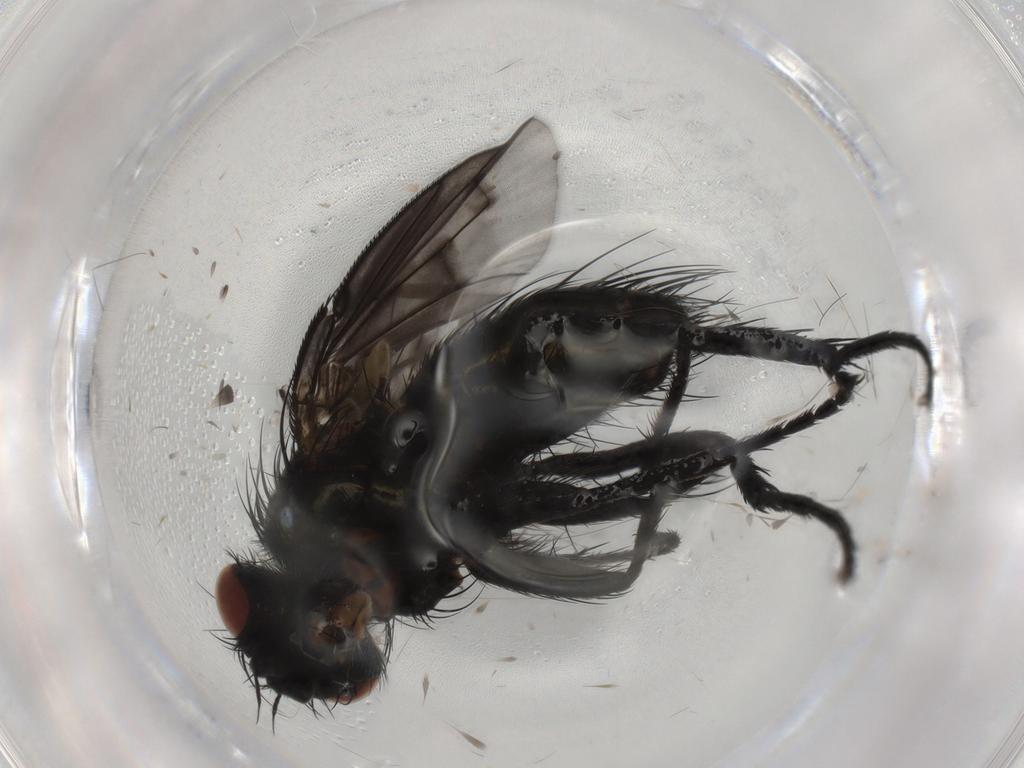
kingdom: Animalia
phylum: Arthropoda
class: Insecta
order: Diptera
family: Tachinidae
